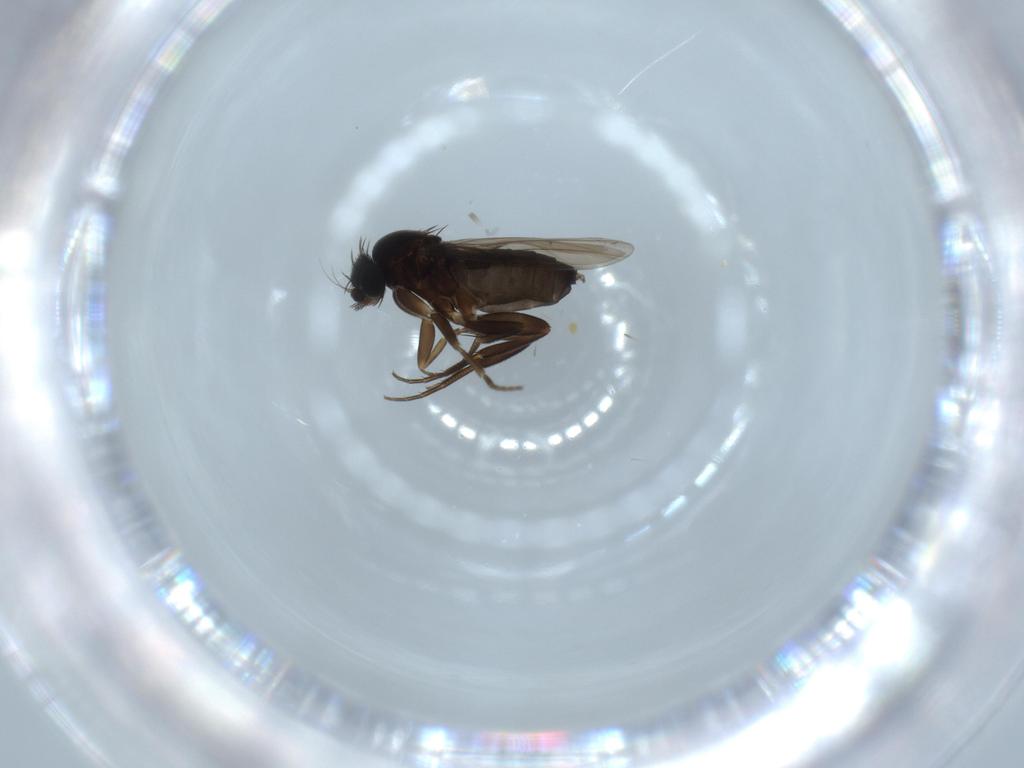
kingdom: Animalia
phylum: Arthropoda
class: Insecta
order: Diptera
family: Phoridae
